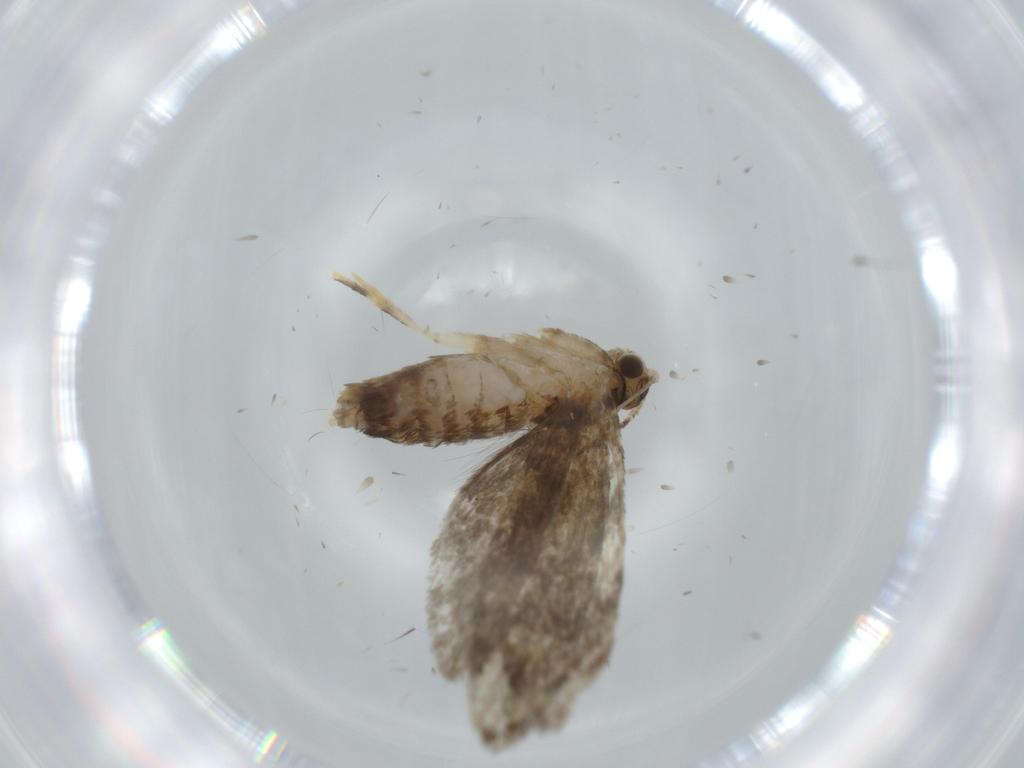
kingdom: Animalia
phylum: Arthropoda
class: Insecta
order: Lepidoptera
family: Tineidae
